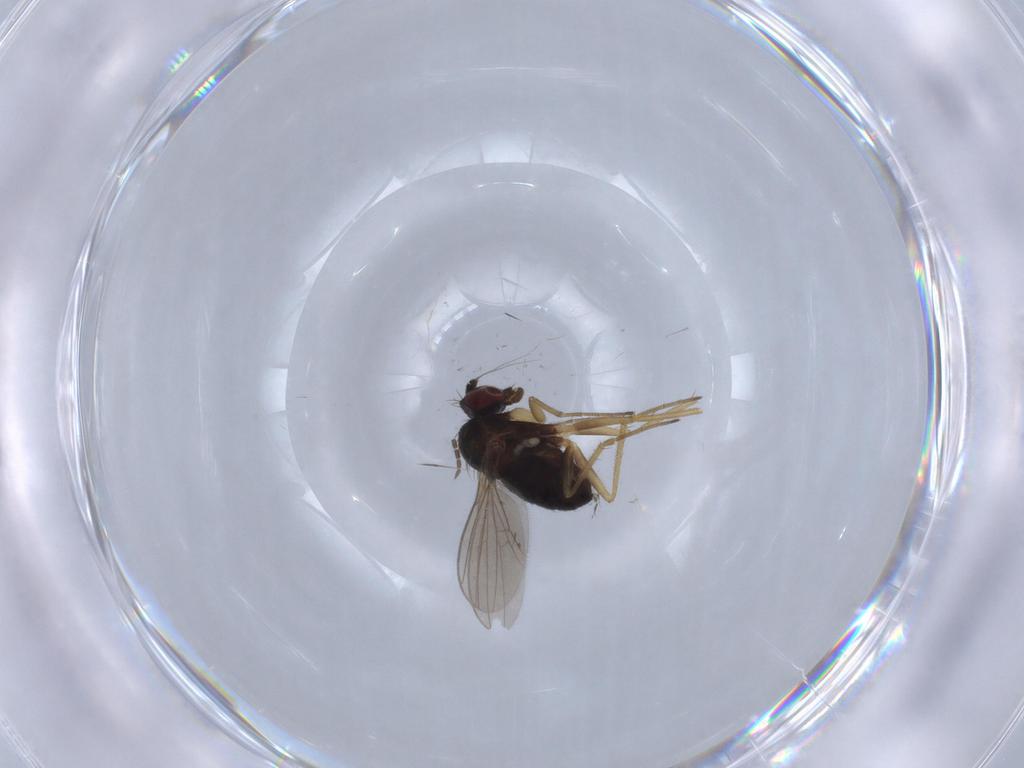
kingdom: Animalia
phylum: Arthropoda
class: Insecta
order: Diptera
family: Dolichopodidae
